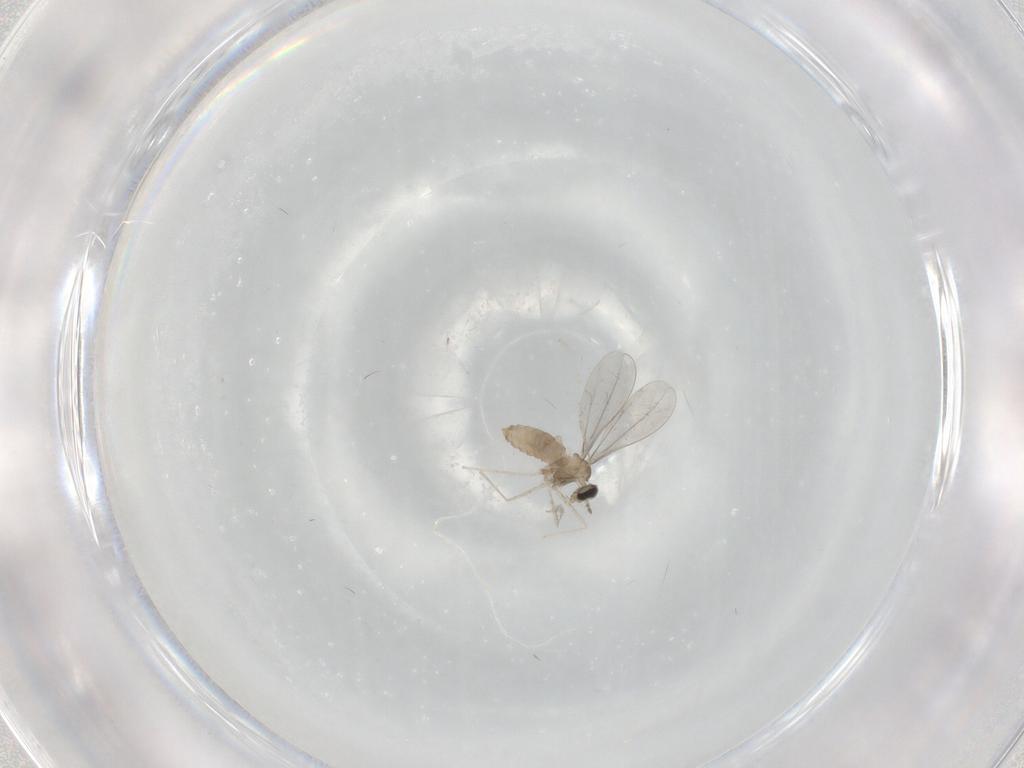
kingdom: Animalia
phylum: Arthropoda
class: Insecta
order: Diptera
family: Cecidomyiidae
